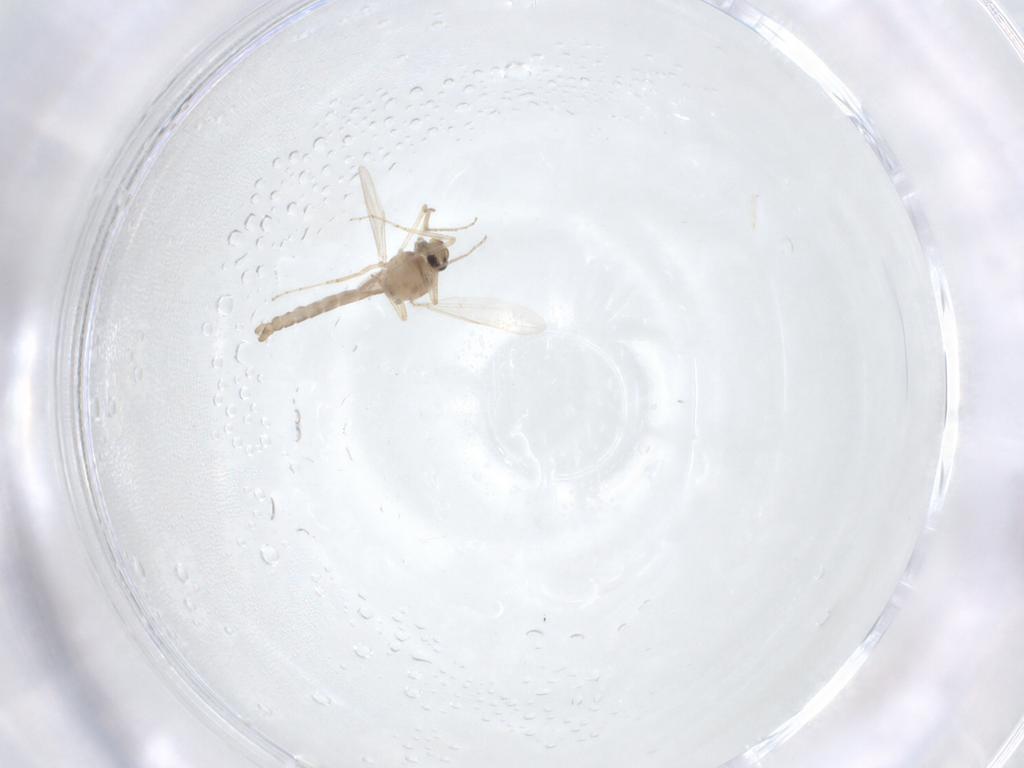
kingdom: Animalia
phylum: Arthropoda
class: Insecta
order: Diptera
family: Ceratopogonidae
